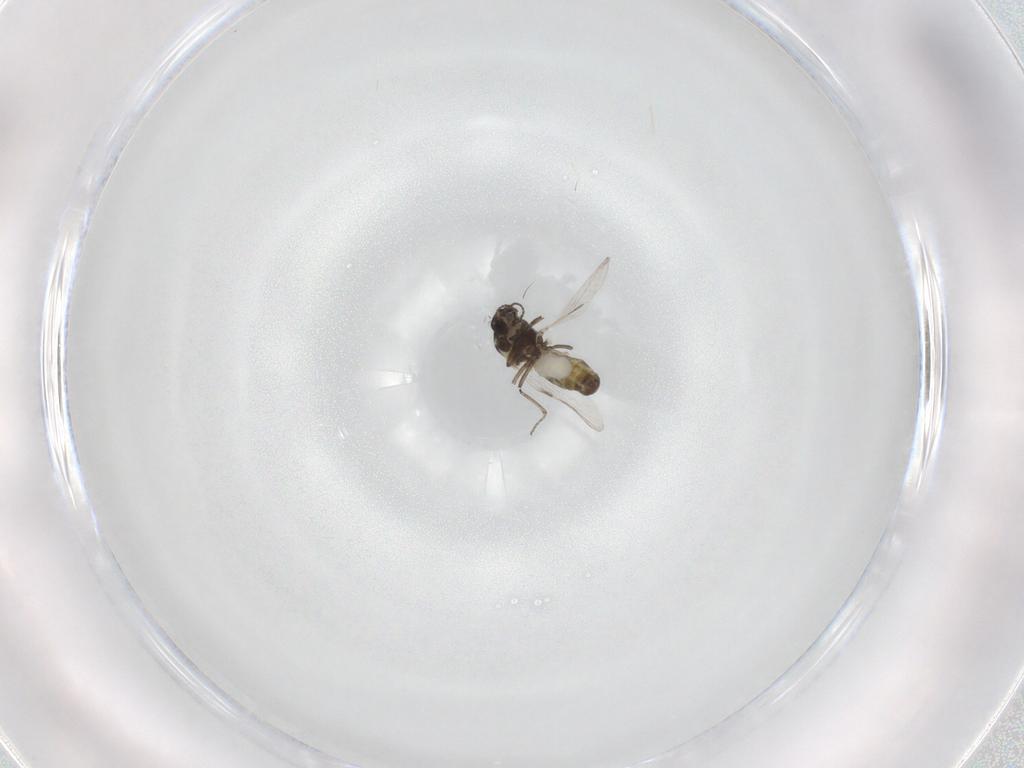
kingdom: Animalia
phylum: Arthropoda
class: Insecta
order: Diptera
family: Ceratopogonidae
